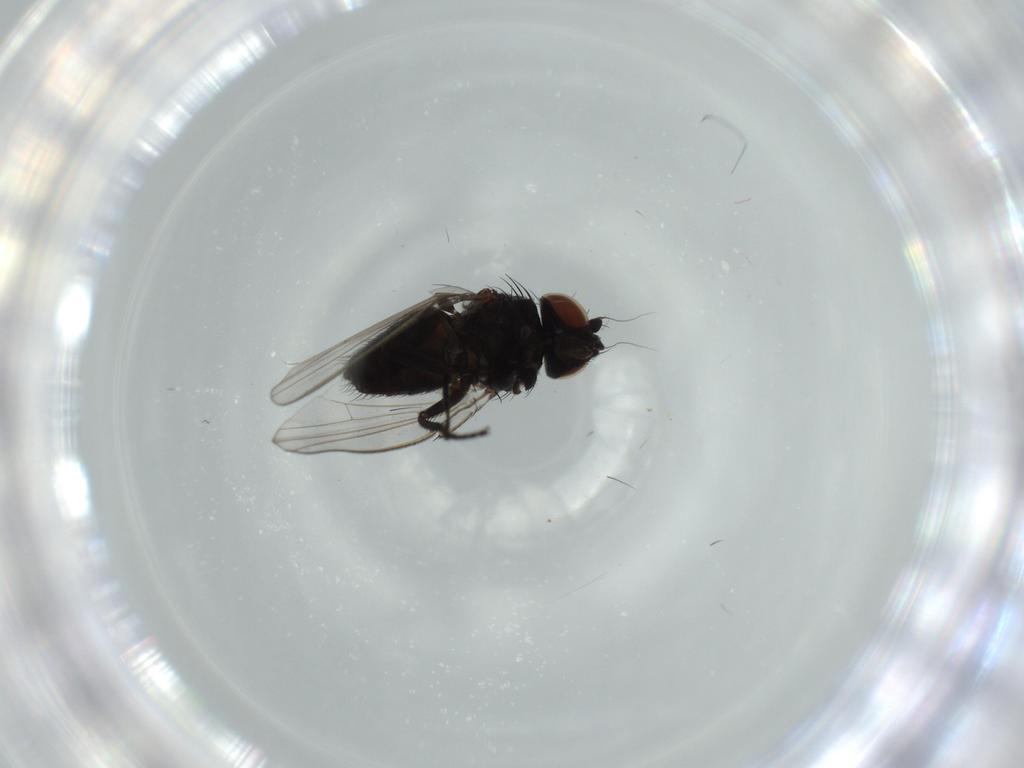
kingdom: Animalia
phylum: Arthropoda
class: Insecta
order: Diptera
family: Milichiidae
